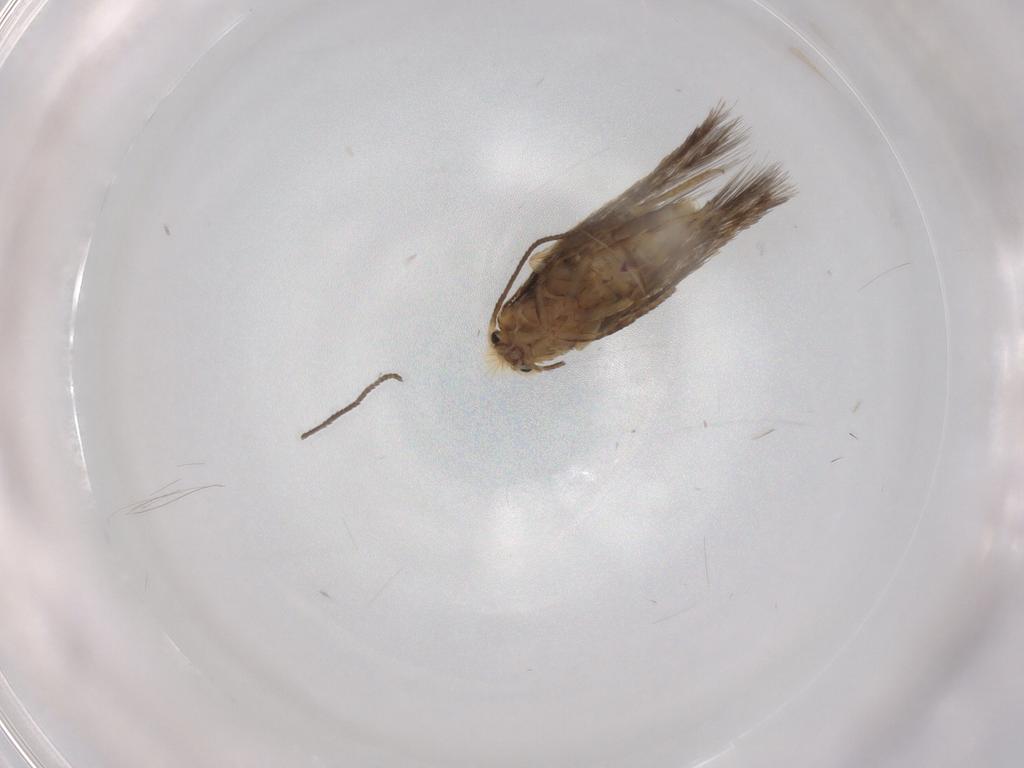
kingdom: Animalia
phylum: Arthropoda
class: Insecta
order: Lepidoptera
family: Nepticulidae
